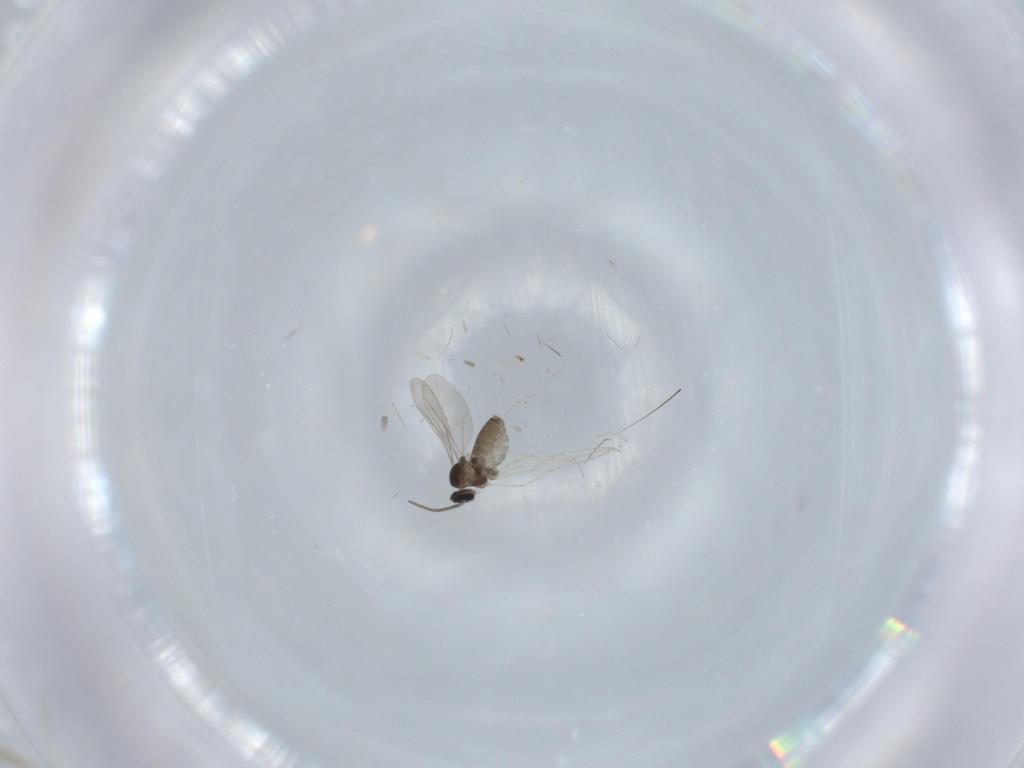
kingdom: Animalia
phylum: Arthropoda
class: Insecta
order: Diptera
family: Cecidomyiidae
